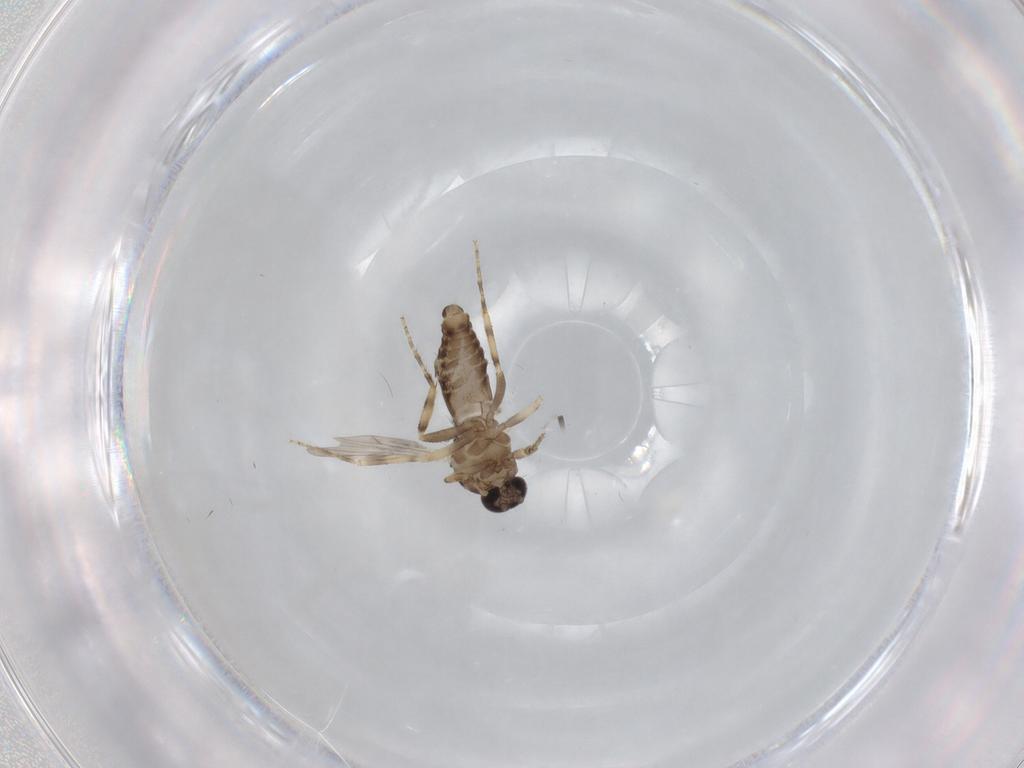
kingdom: Animalia
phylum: Arthropoda
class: Insecta
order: Diptera
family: Ceratopogonidae
